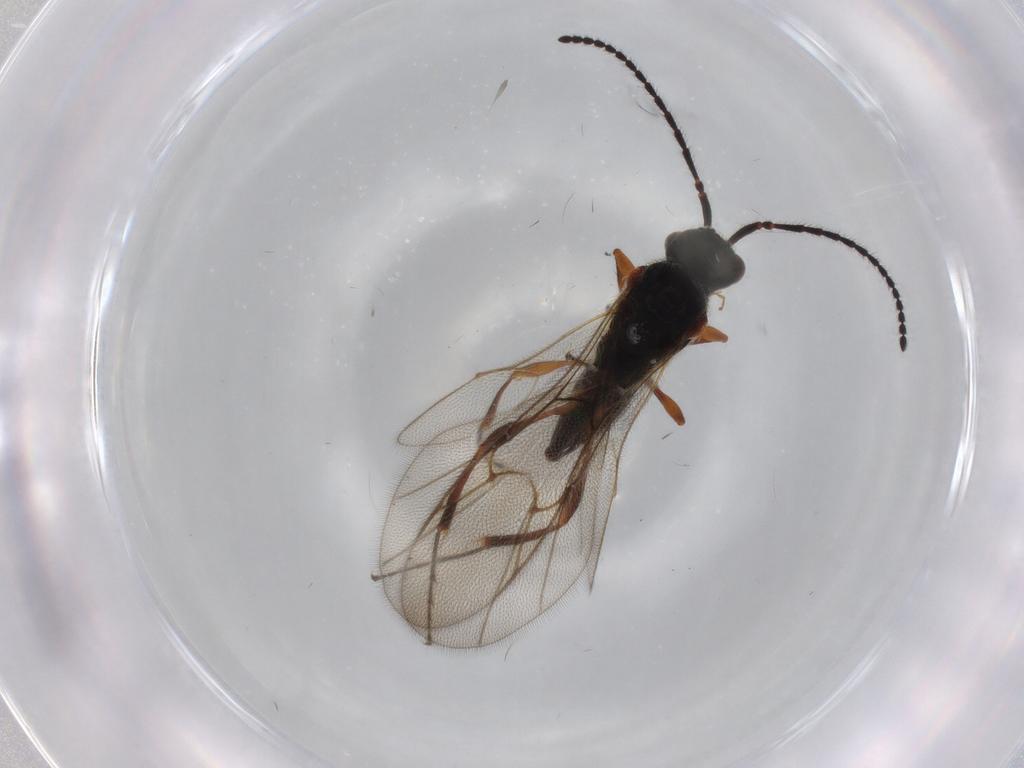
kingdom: Animalia
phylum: Arthropoda
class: Insecta
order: Hymenoptera
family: Diapriidae
